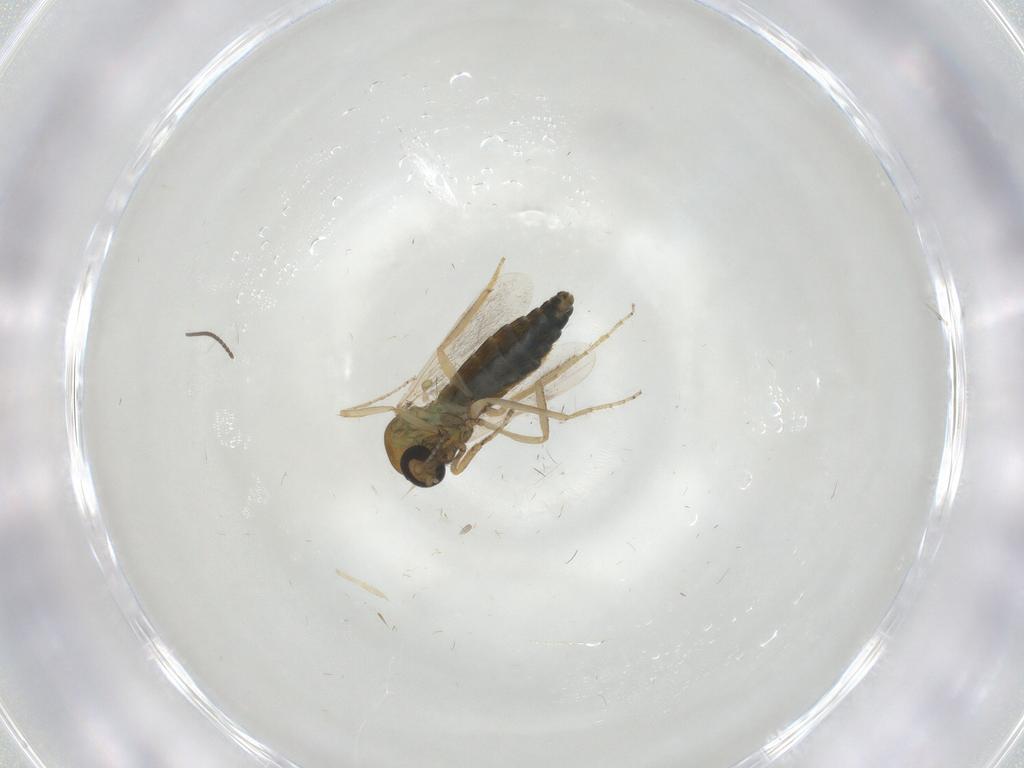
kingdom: Animalia
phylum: Arthropoda
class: Insecta
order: Diptera
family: Ceratopogonidae
